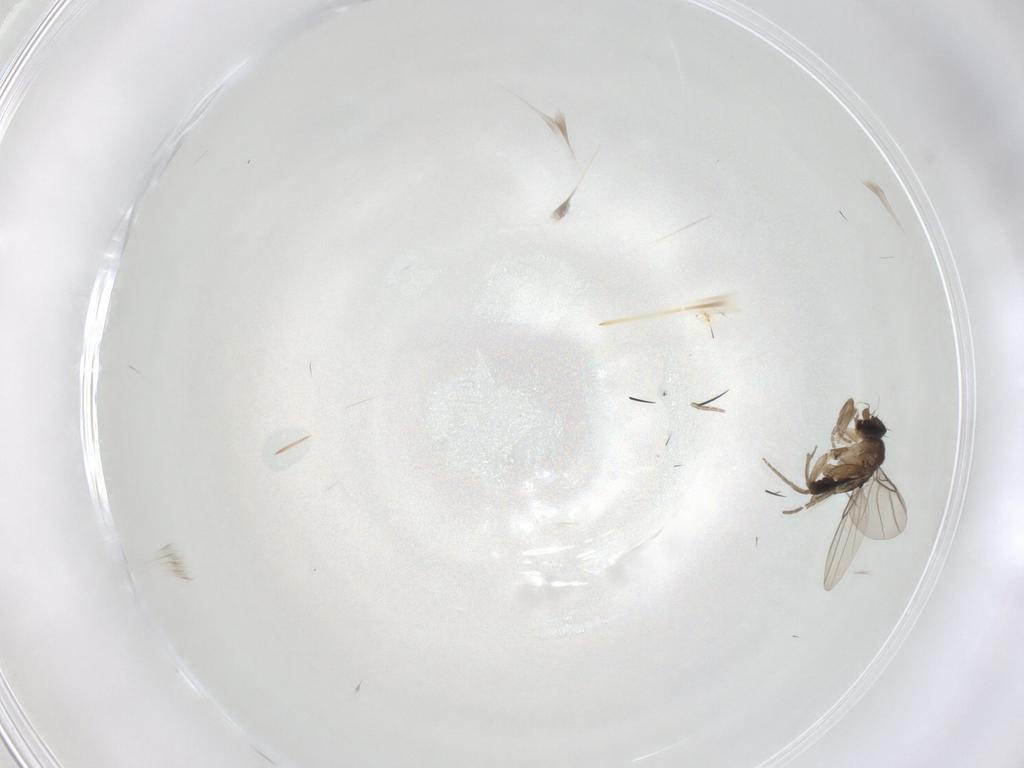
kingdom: Animalia
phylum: Arthropoda
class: Insecta
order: Diptera
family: Phoridae
